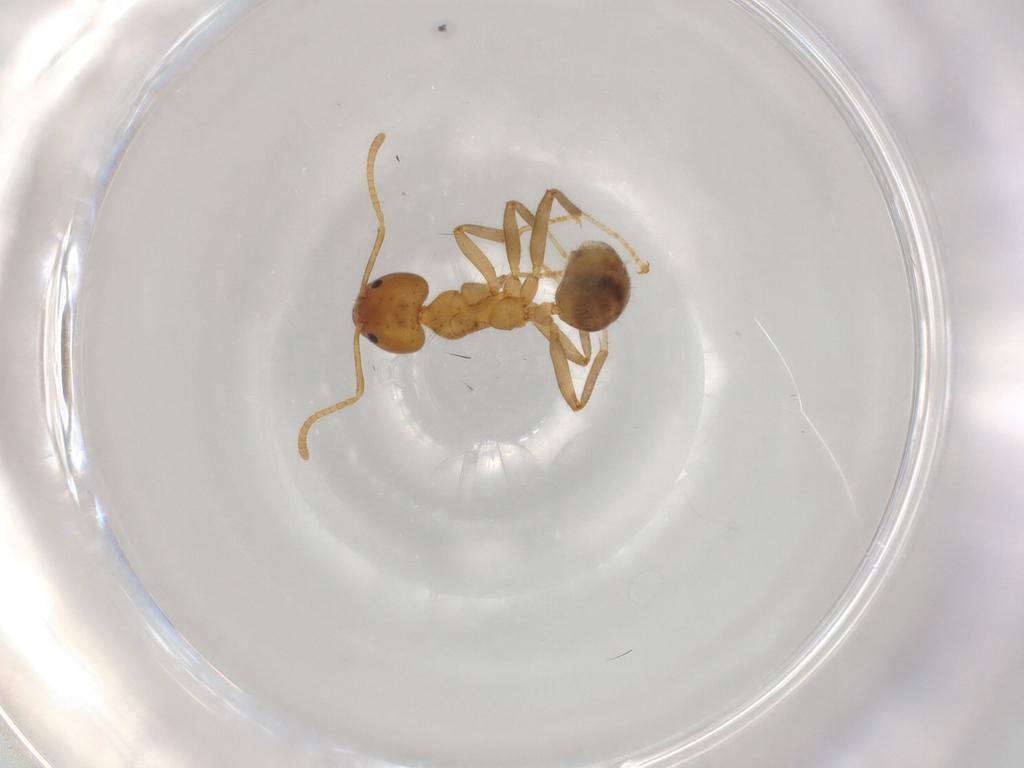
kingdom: Animalia
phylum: Arthropoda
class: Insecta
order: Hymenoptera
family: Formicidae
